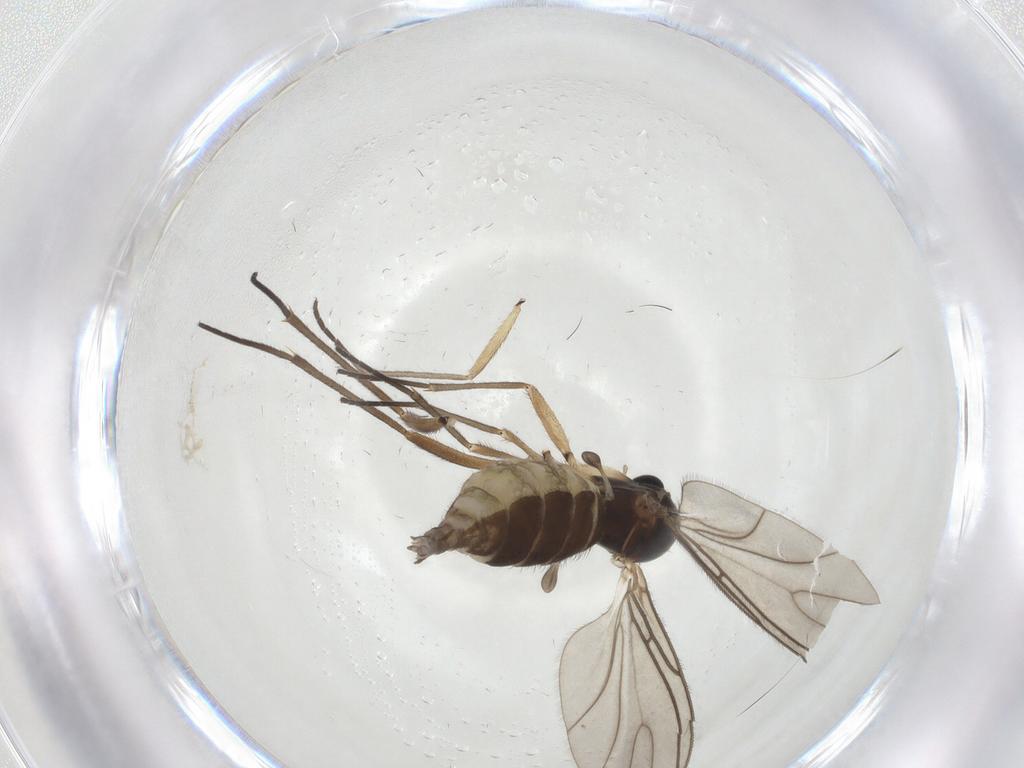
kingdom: Animalia
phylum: Arthropoda
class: Insecta
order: Diptera
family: Sciaridae
